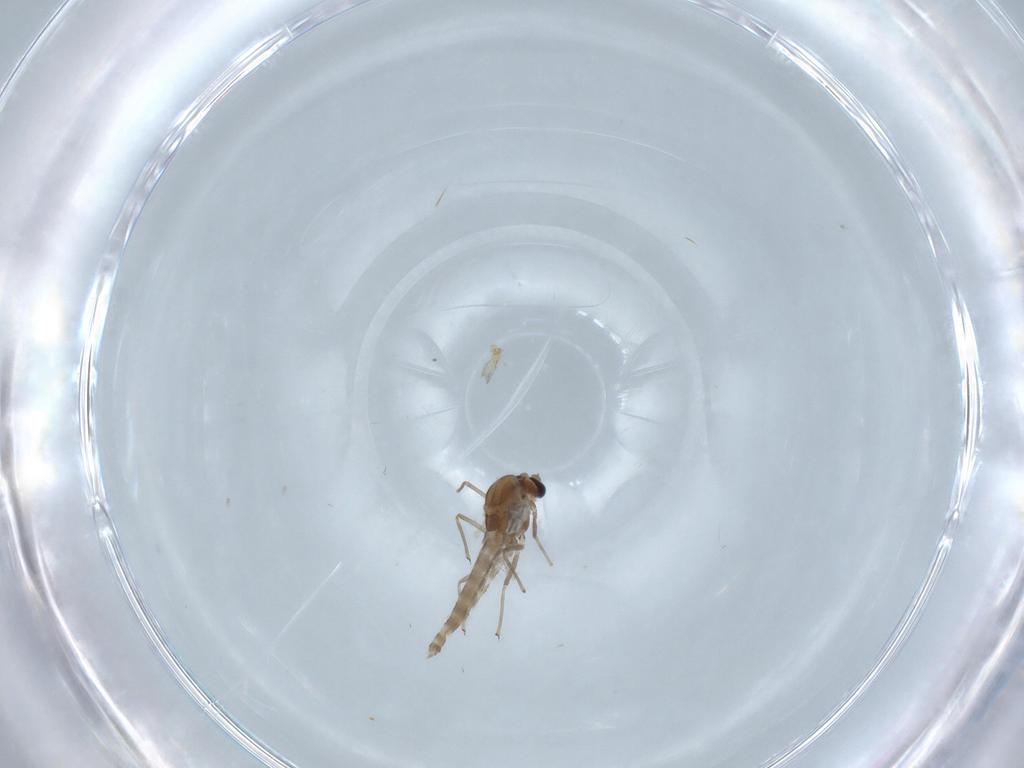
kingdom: Animalia
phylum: Arthropoda
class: Insecta
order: Diptera
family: Chironomidae
